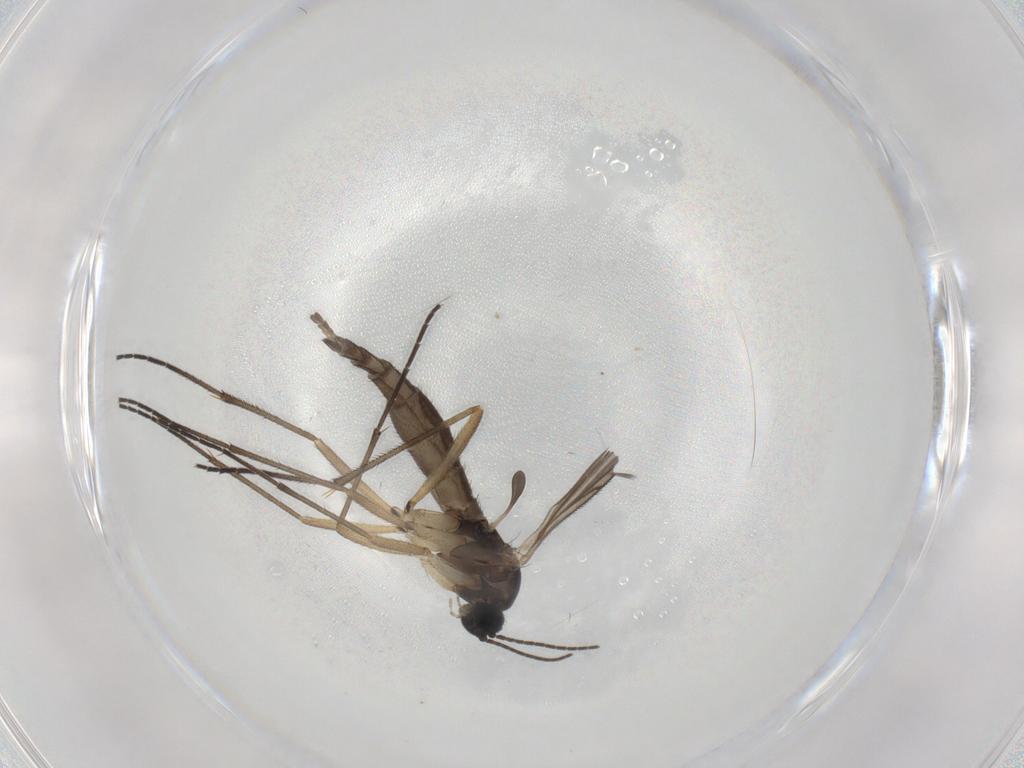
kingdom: Animalia
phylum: Arthropoda
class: Insecta
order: Diptera
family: Sciaridae
